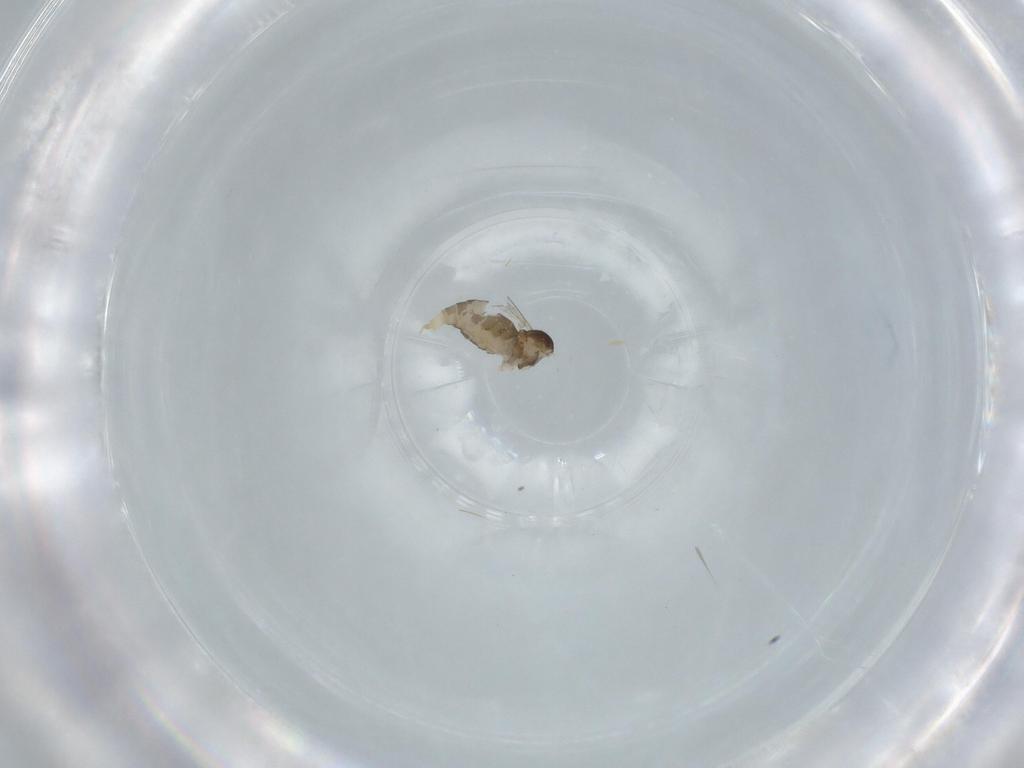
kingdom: Animalia
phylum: Arthropoda
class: Insecta
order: Diptera
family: Cecidomyiidae
